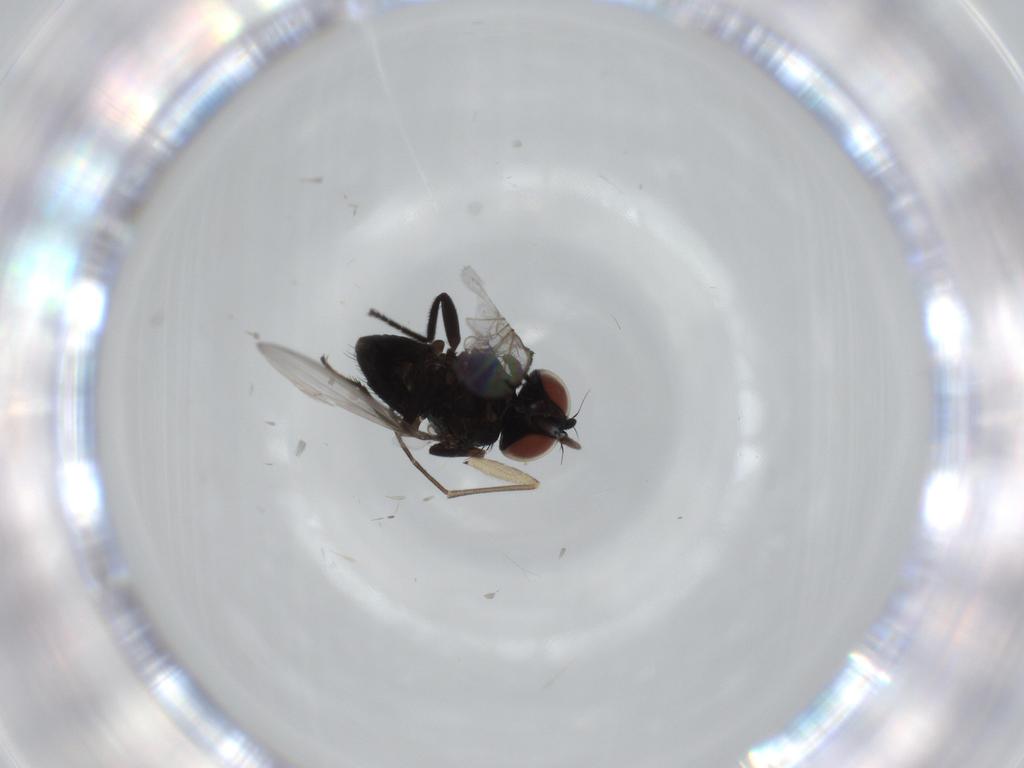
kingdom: Animalia
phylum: Arthropoda
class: Insecta
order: Diptera
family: Sciaridae
